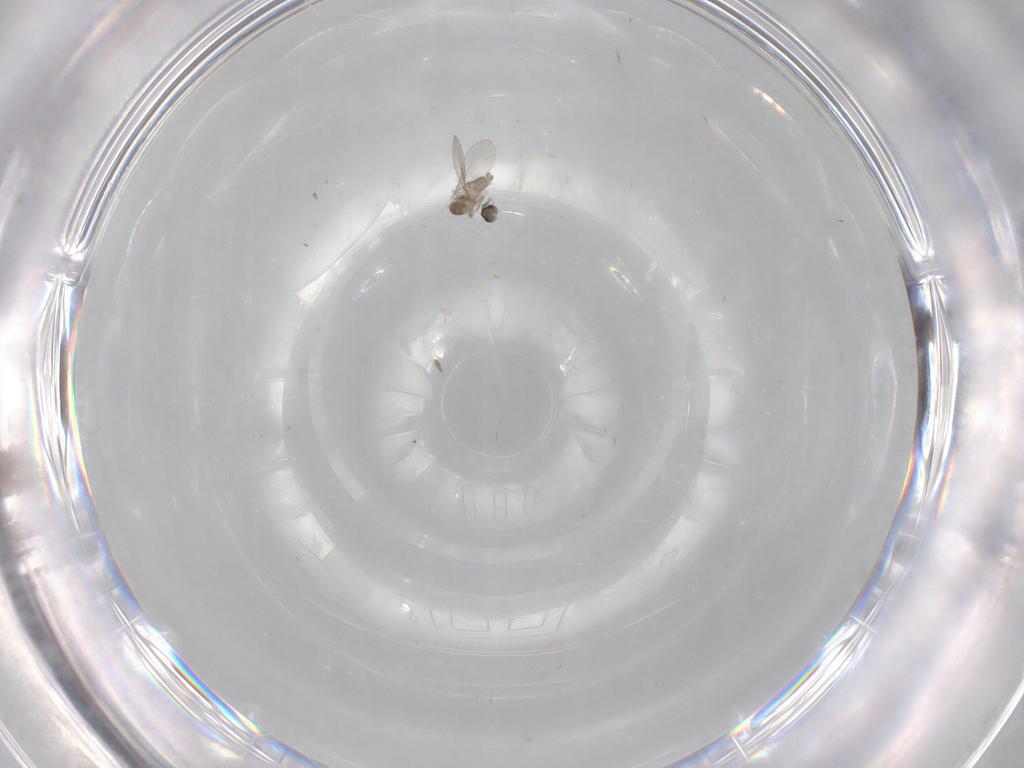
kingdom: Animalia
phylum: Arthropoda
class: Insecta
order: Diptera
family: Cecidomyiidae
